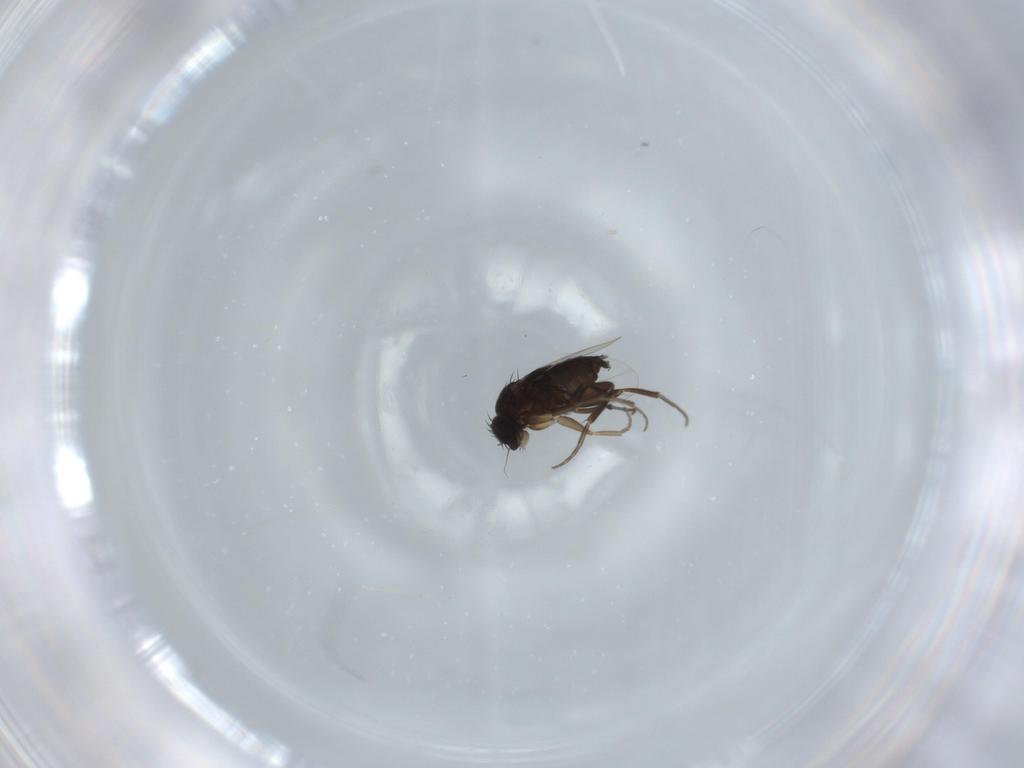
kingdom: Animalia
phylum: Arthropoda
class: Insecta
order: Diptera
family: Phoridae
